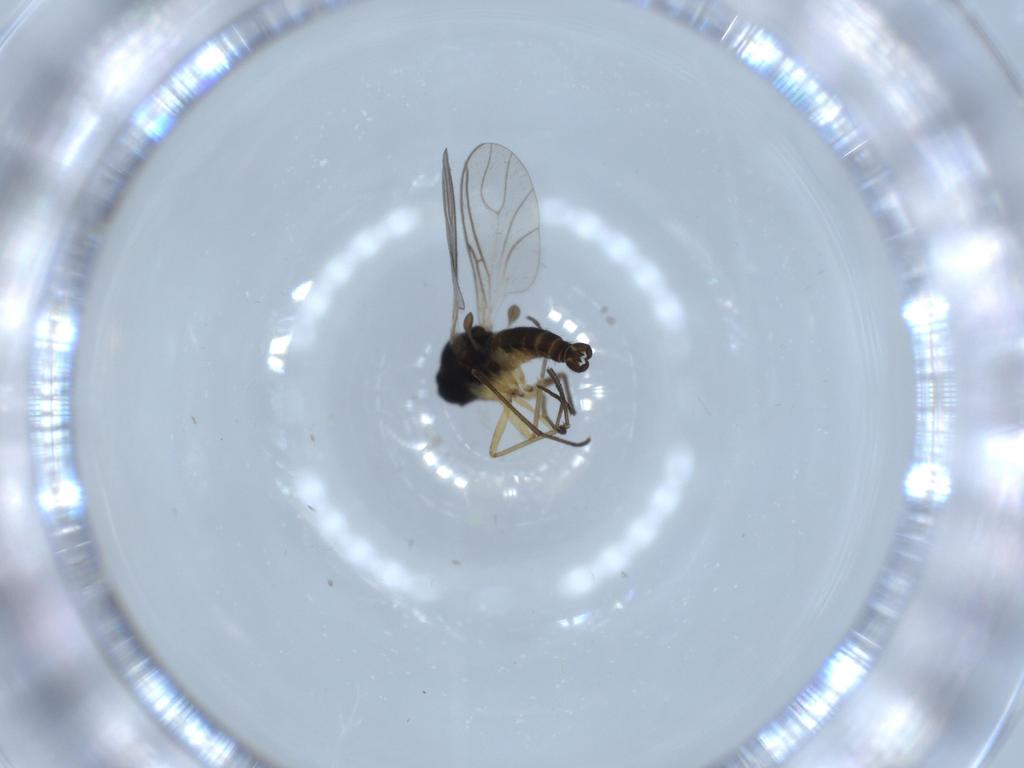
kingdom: Animalia
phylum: Arthropoda
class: Insecta
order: Diptera
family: Sciaridae
